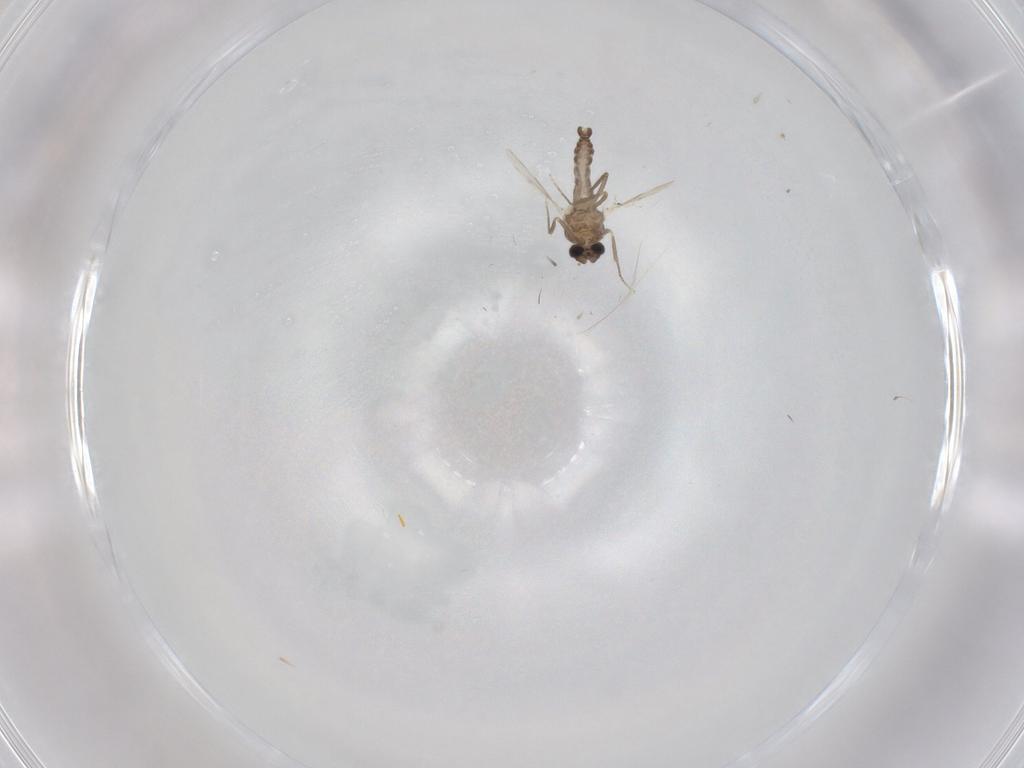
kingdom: Animalia
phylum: Arthropoda
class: Insecta
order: Diptera
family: Ceratopogonidae
